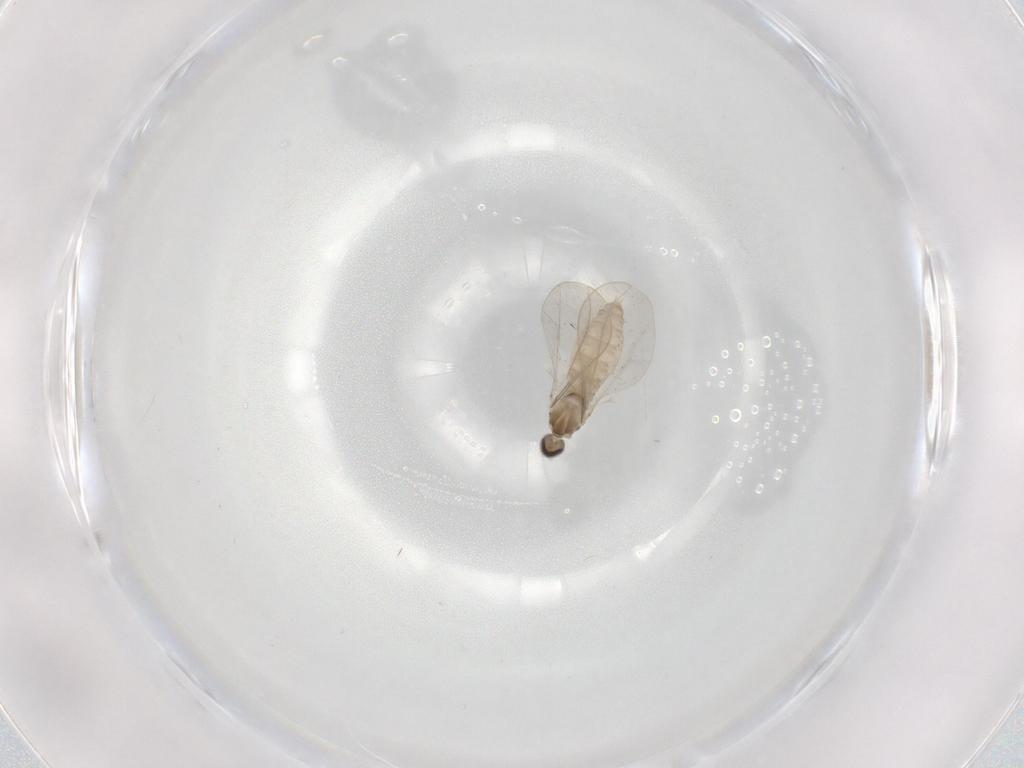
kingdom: Animalia
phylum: Arthropoda
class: Insecta
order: Diptera
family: Cecidomyiidae
